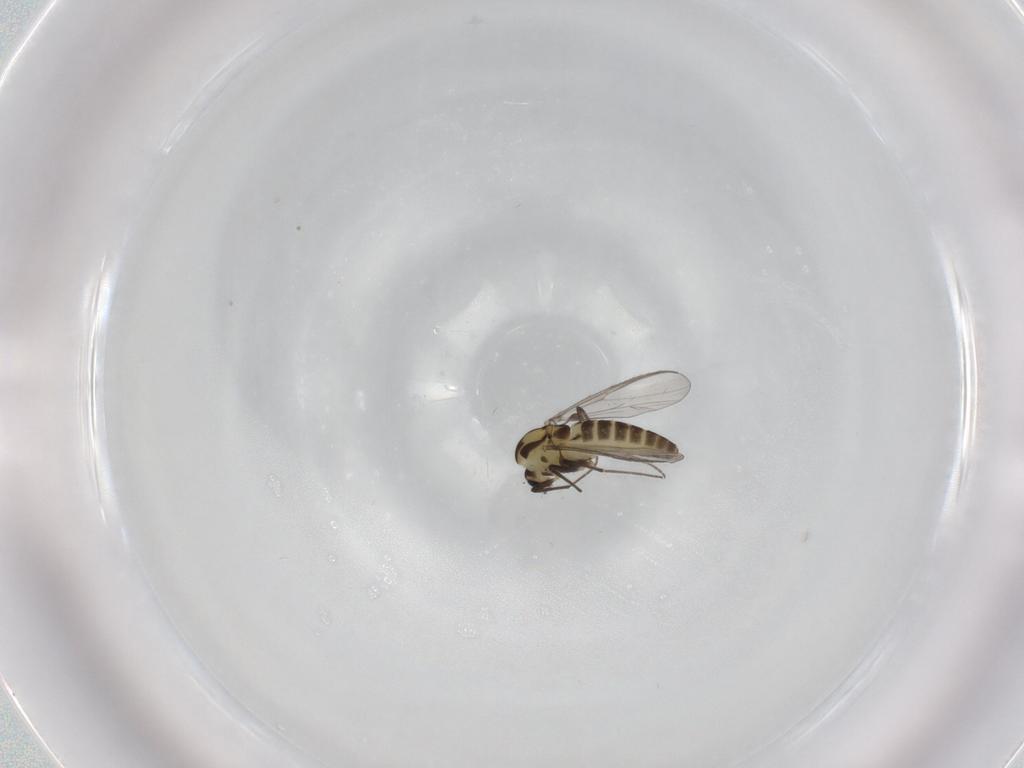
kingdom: Animalia
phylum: Arthropoda
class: Insecta
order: Diptera
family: Chironomidae
